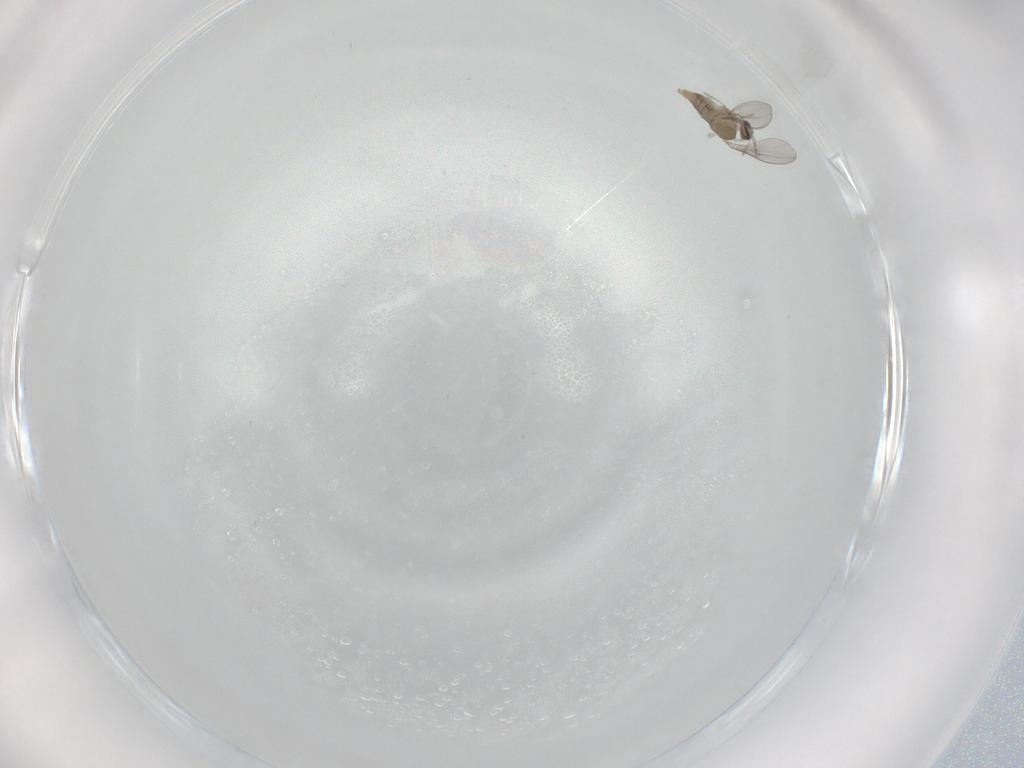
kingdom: Animalia
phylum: Arthropoda
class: Insecta
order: Diptera
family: Cecidomyiidae
